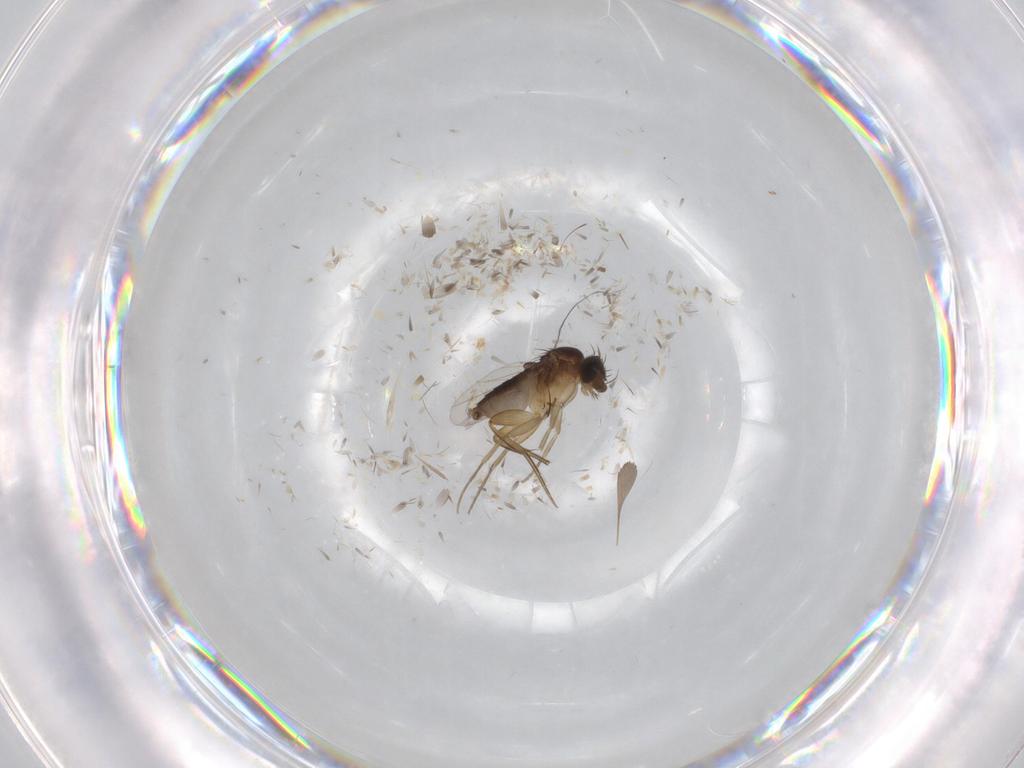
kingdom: Animalia
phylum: Arthropoda
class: Insecta
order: Diptera
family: Phoridae
